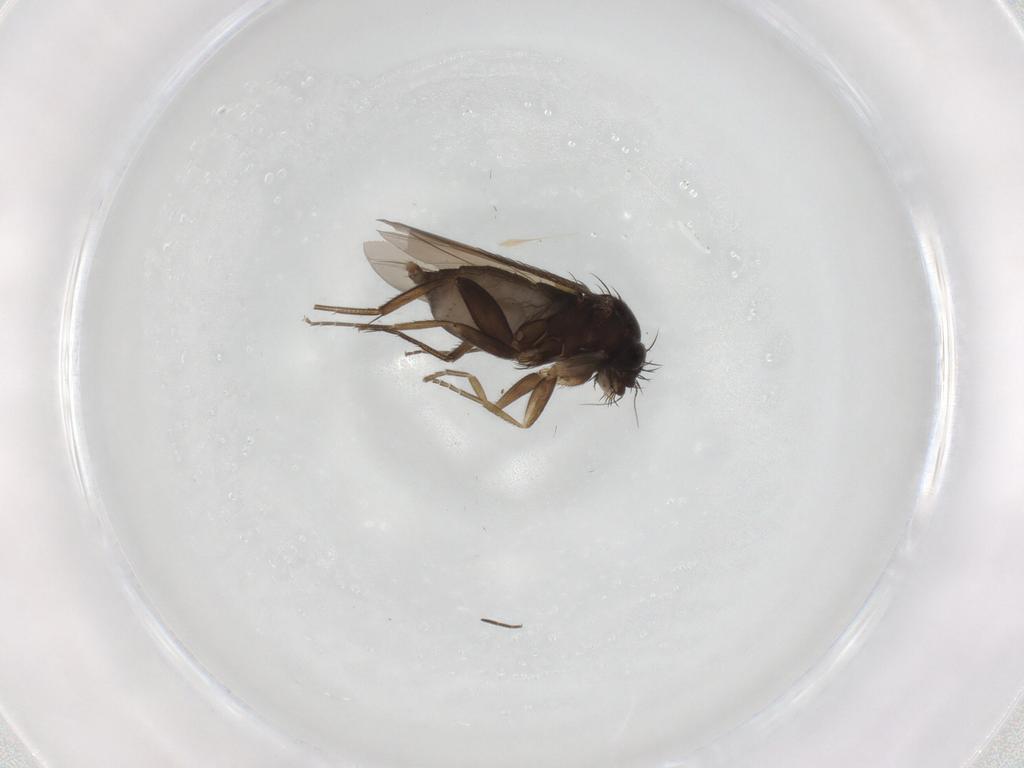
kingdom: Animalia
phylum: Arthropoda
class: Insecta
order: Diptera
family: Phoridae
